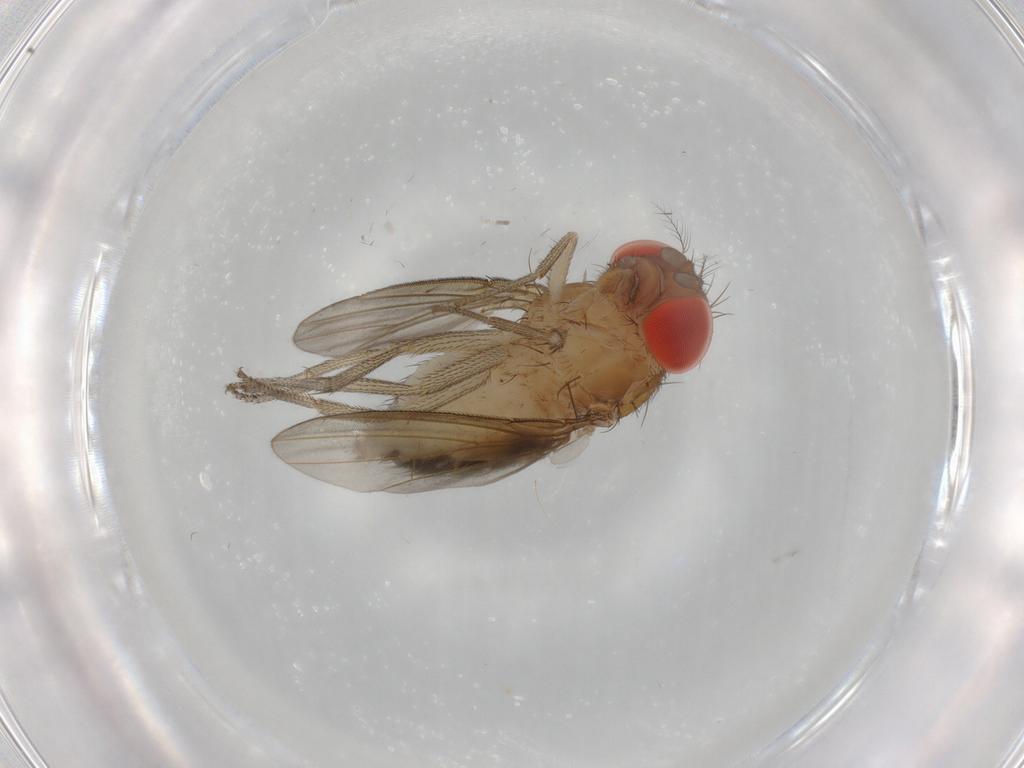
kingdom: Animalia
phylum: Arthropoda
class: Insecta
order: Diptera
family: Drosophilidae
